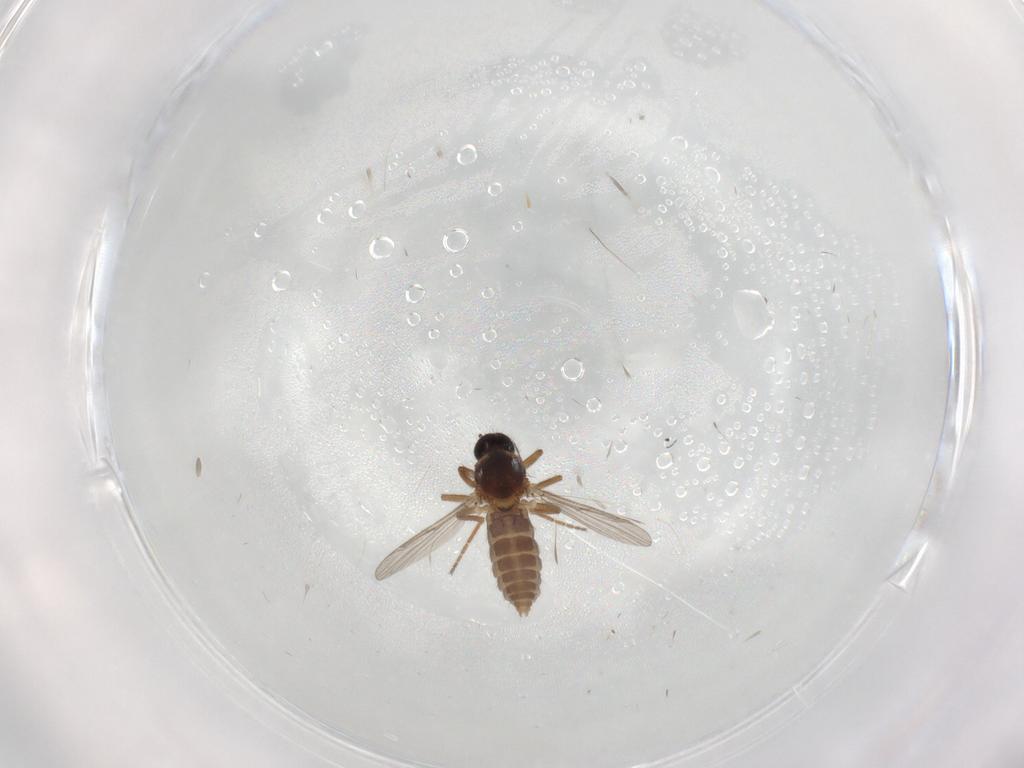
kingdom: Animalia
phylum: Arthropoda
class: Insecta
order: Diptera
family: Ceratopogonidae
